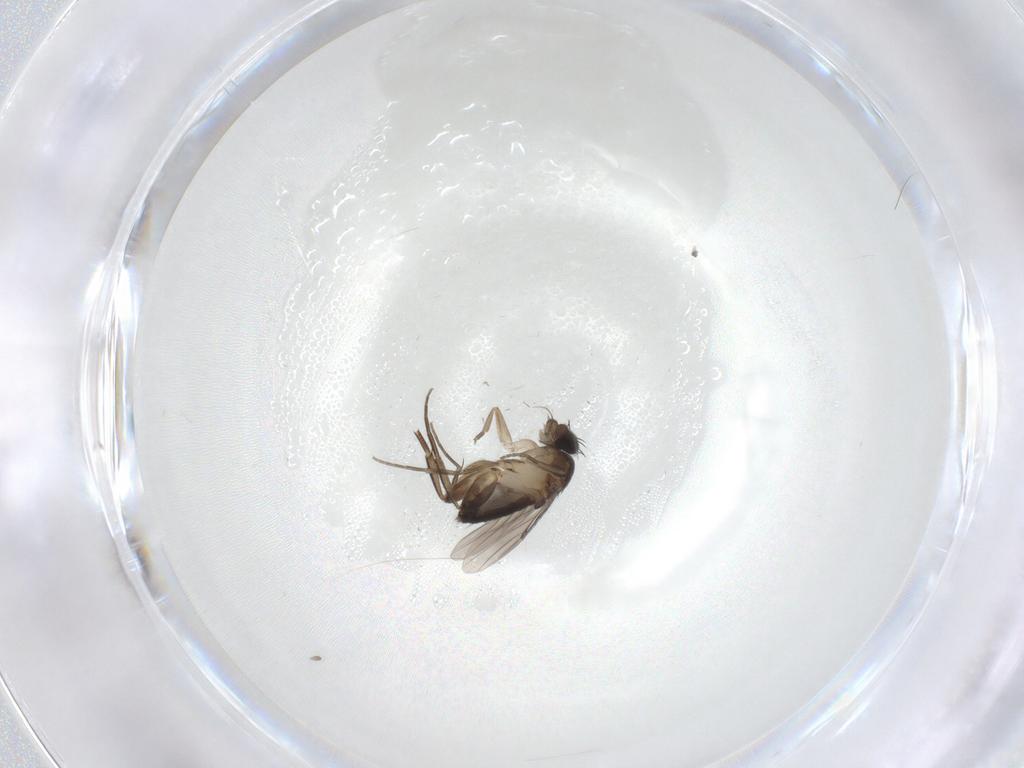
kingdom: Animalia
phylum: Arthropoda
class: Insecta
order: Diptera
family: Phoridae
